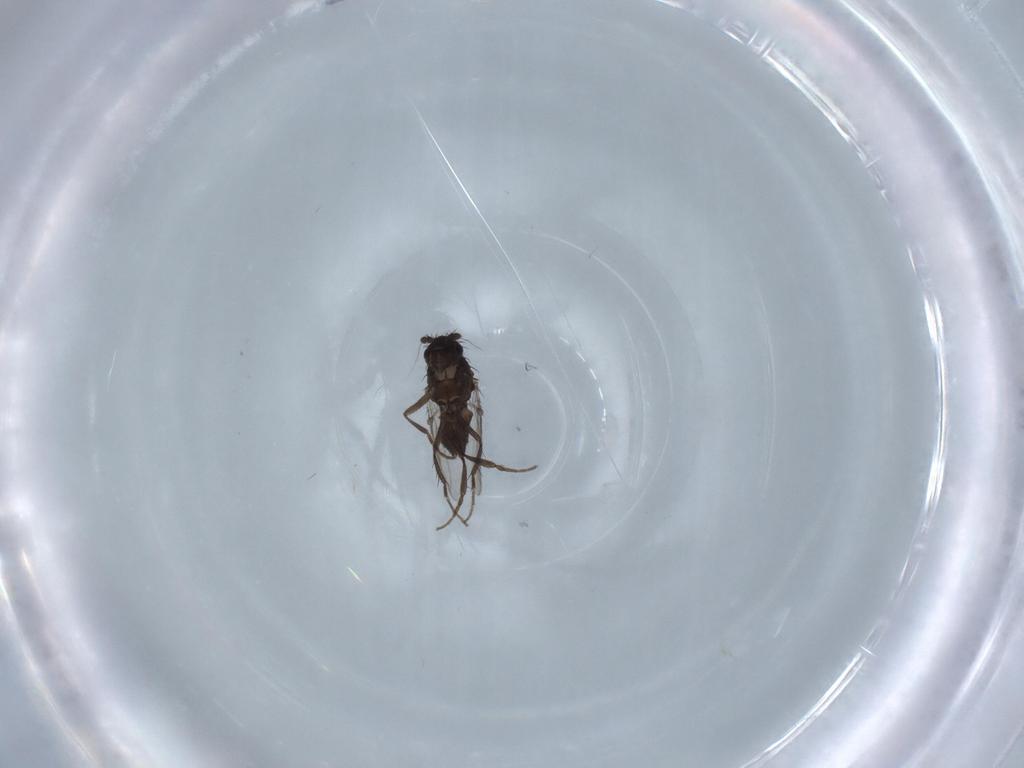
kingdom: Animalia
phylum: Arthropoda
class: Insecta
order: Diptera
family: Sphaeroceridae
